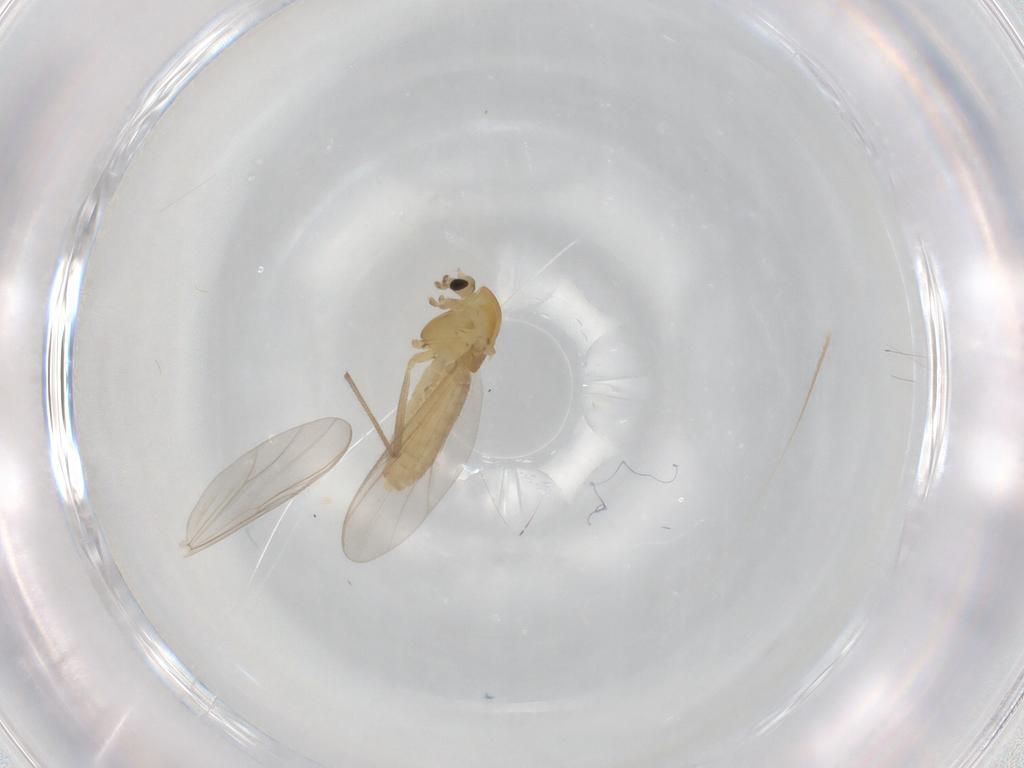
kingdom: Animalia
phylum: Arthropoda
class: Insecta
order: Diptera
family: Chironomidae
